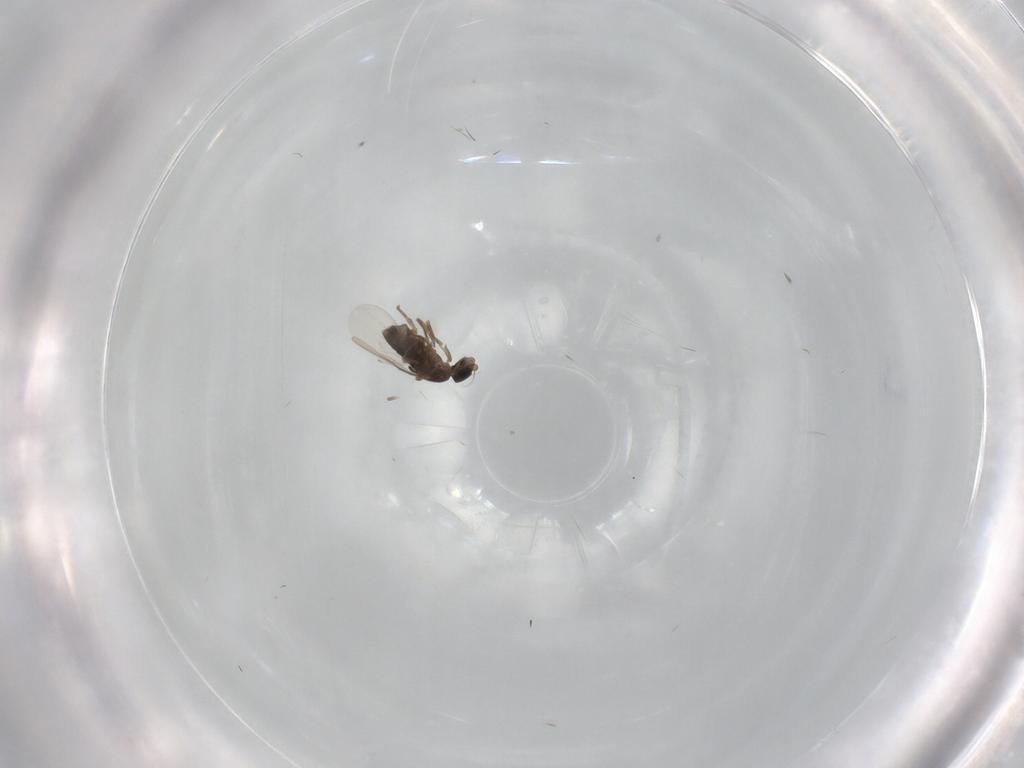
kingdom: Animalia
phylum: Arthropoda
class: Insecta
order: Diptera
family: Phoridae
